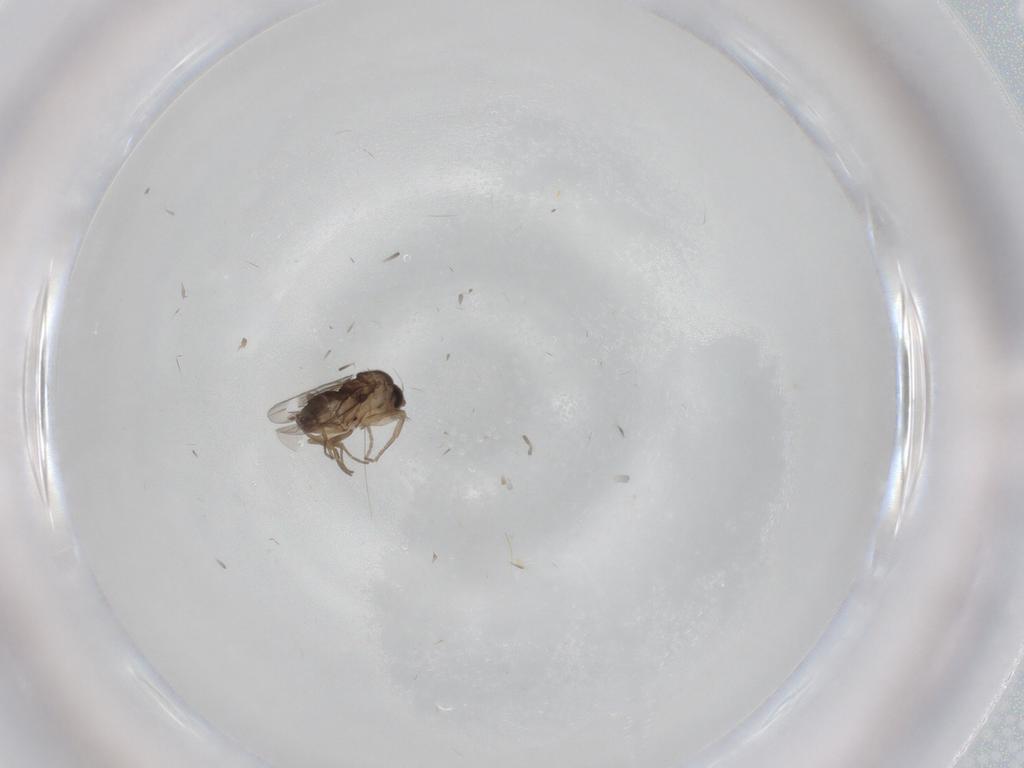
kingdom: Animalia
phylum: Arthropoda
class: Insecta
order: Diptera
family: Phoridae
